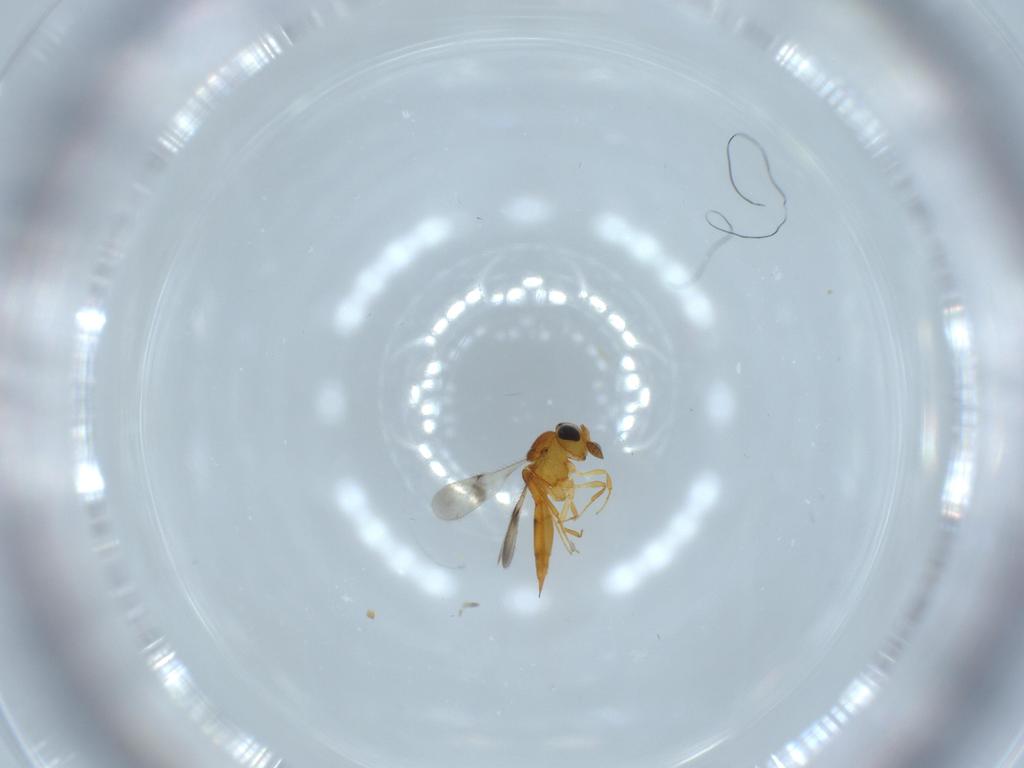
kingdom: Animalia
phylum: Arthropoda
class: Insecta
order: Hymenoptera
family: Scelionidae
